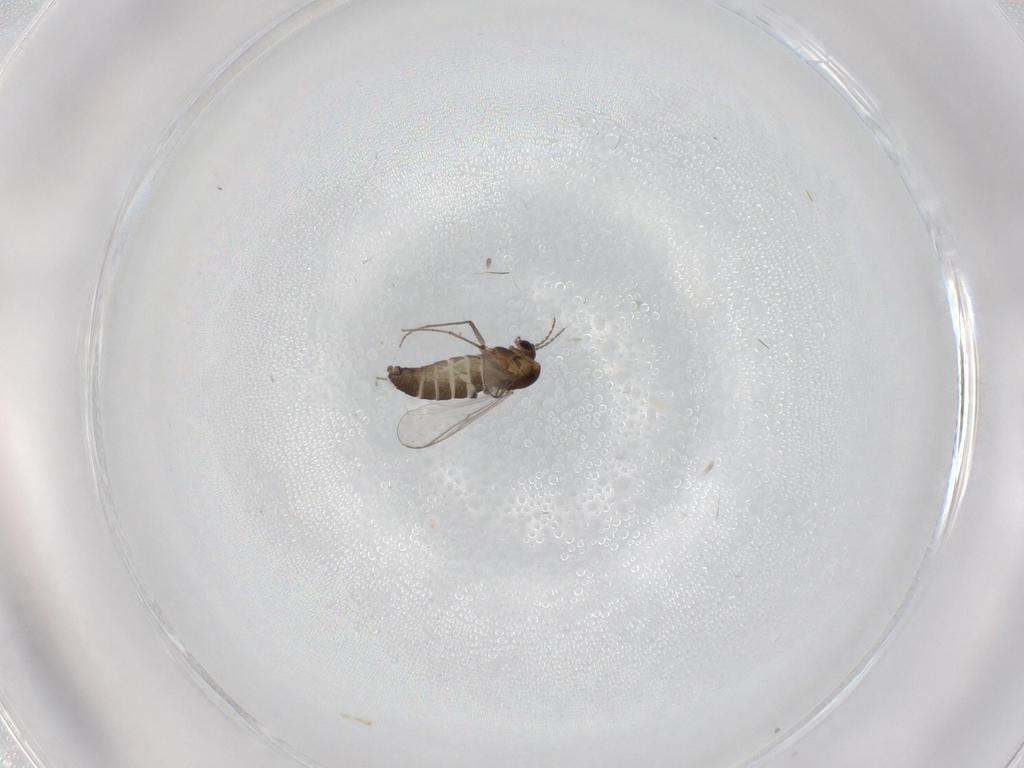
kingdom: Animalia
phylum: Arthropoda
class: Insecta
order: Diptera
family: Chironomidae
